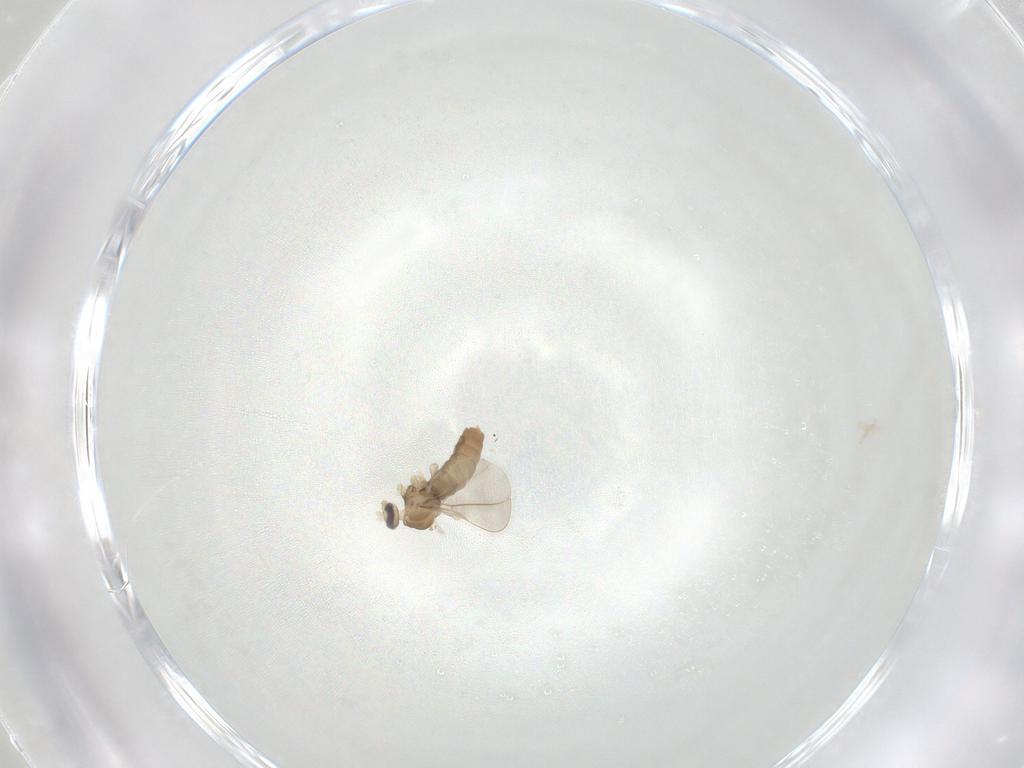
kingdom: Animalia
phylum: Arthropoda
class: Insecta
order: Diptera
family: Cecidomyiidae
